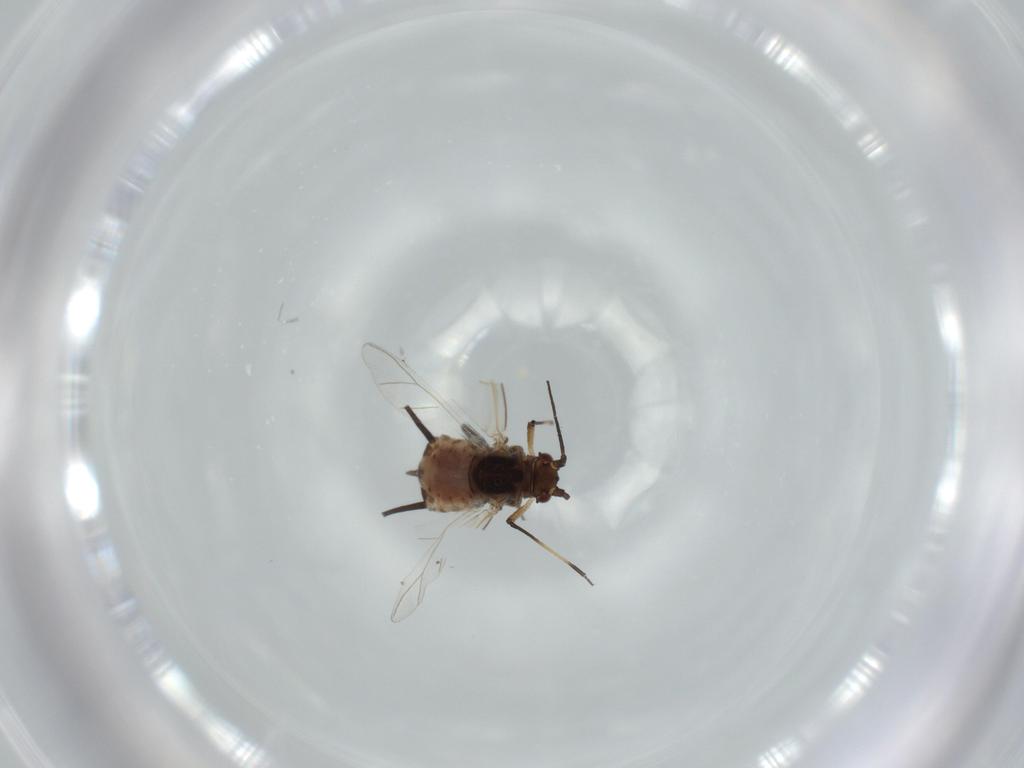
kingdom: Animalia
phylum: Arthropoda
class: Insecta
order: Hemiptera
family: Aphididae
